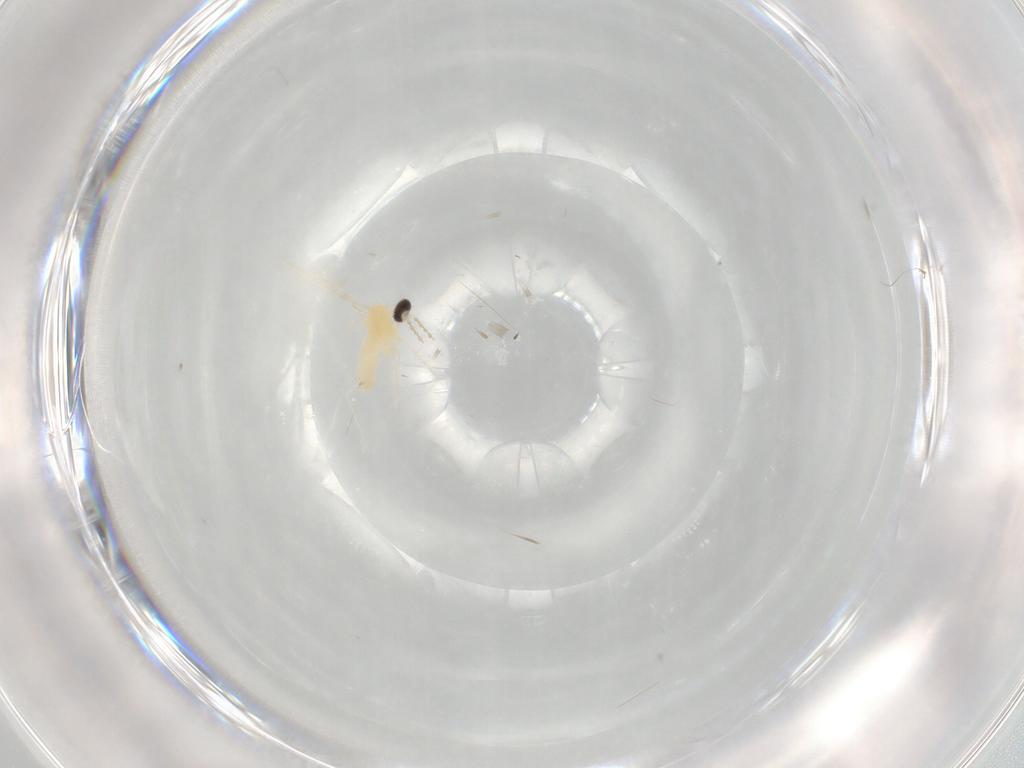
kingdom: Animalia
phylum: Arthropoda
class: Insecta
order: Diptera
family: Cecidomyiidae
